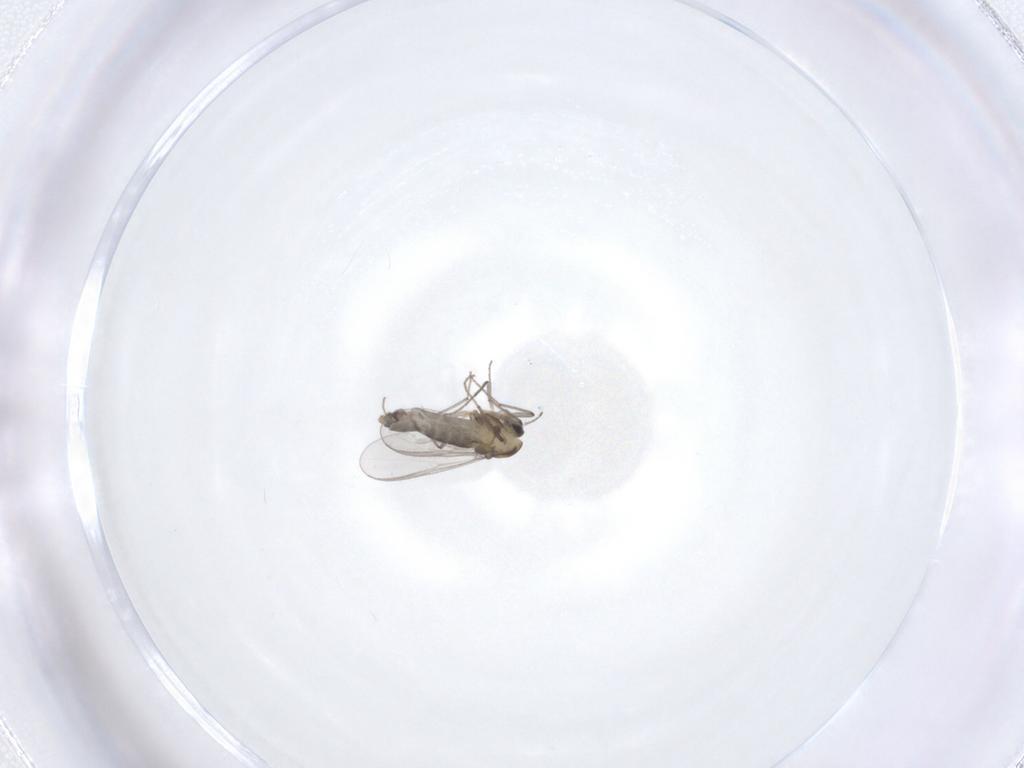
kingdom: Animalia
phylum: Arthropoda
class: Insecta
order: Diptera
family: Chironomidae
